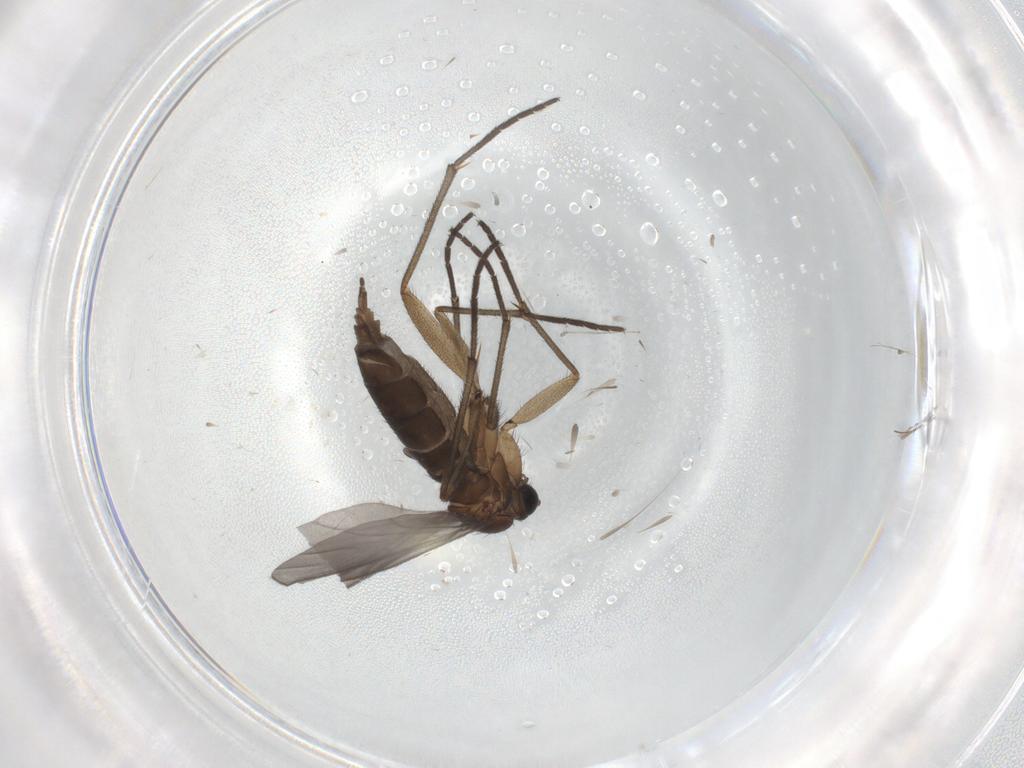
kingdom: Animalia
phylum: Arthropoda
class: Insecta
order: Diptera
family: Sciaridae
